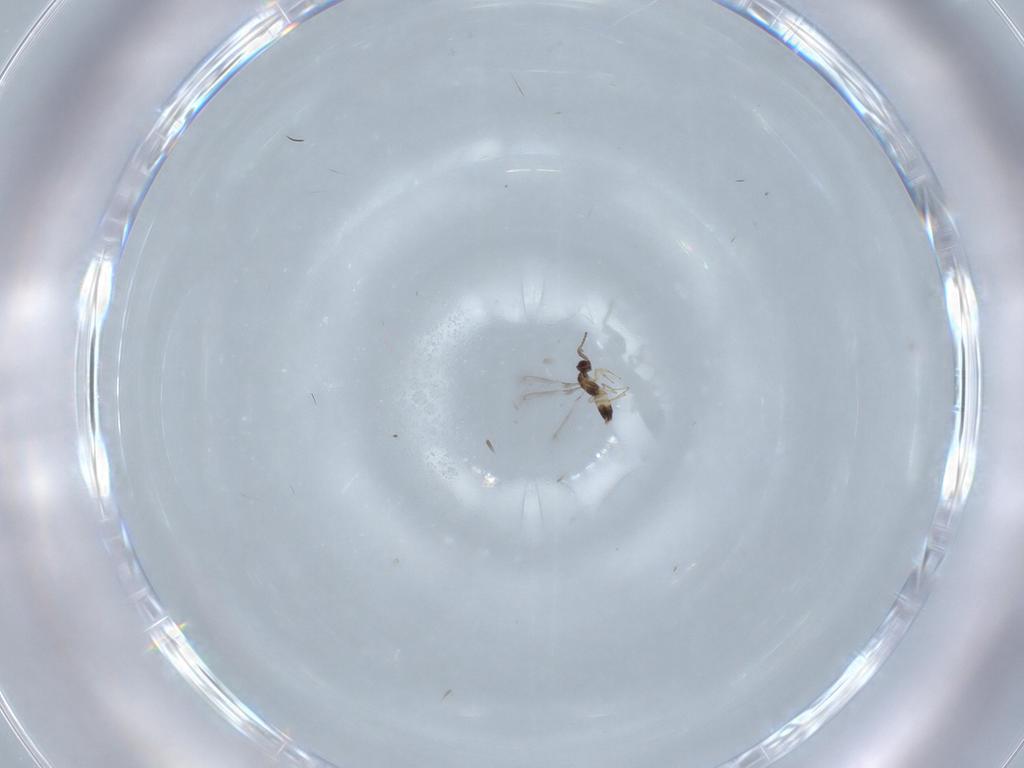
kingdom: Animalia
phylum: Arthropoda
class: Insecta
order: Hymenoptera
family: Mymaridae
